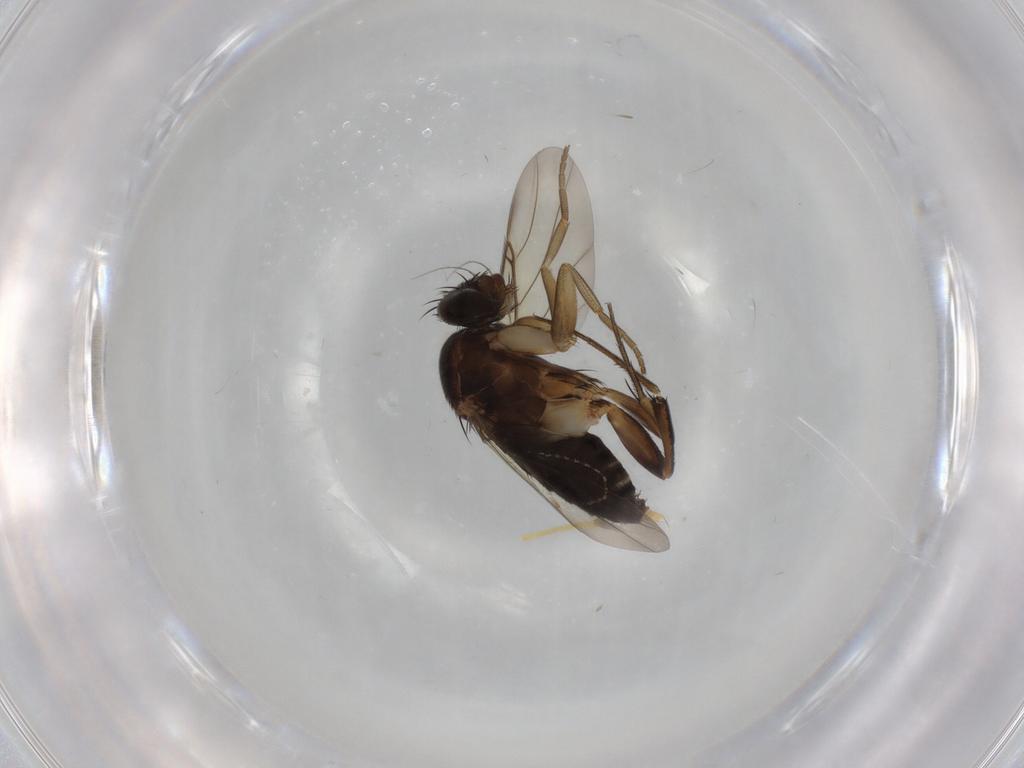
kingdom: Animalia
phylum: Arthropoda
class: Insecta
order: Diptera
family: Phoridae
